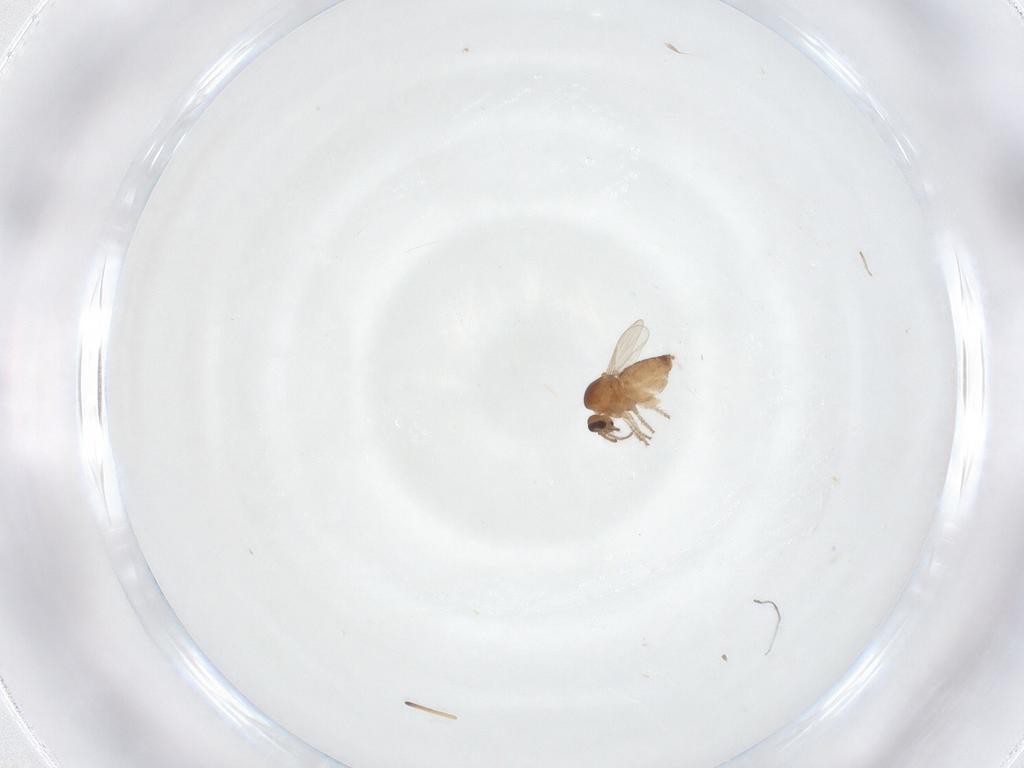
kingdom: Animalia
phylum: Arthropoda
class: Insecta
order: Diptera
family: Ceratopogonidae
